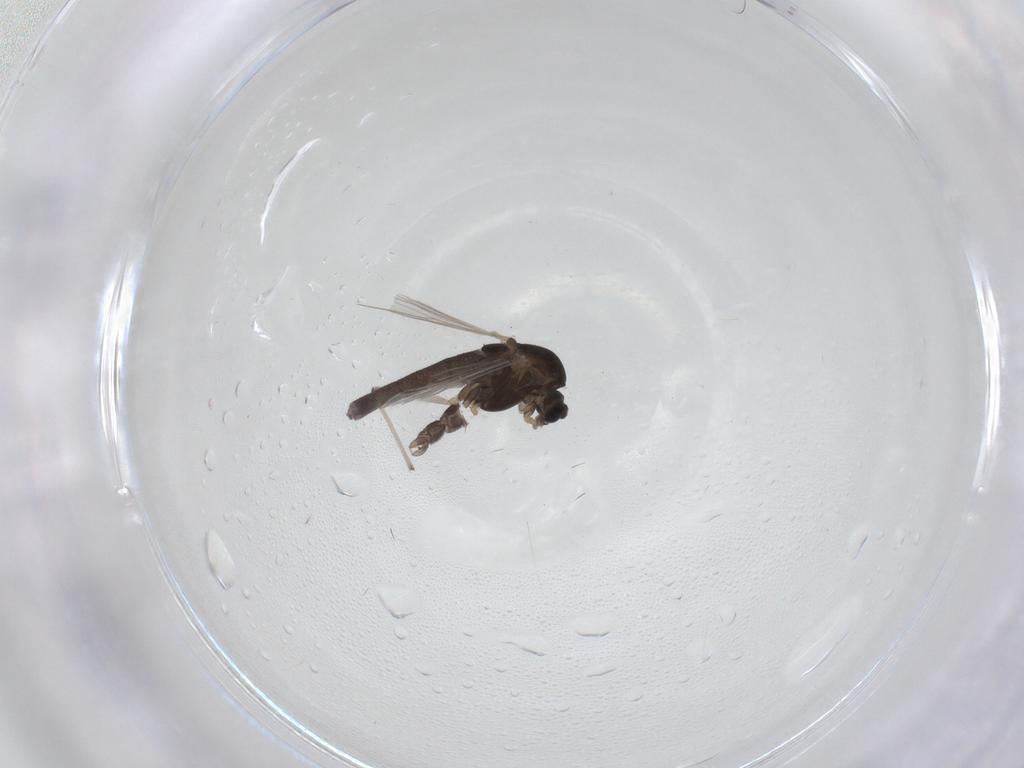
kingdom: Animalia
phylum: Arthropoda
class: Insecta
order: Diptera
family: Chironomidae
